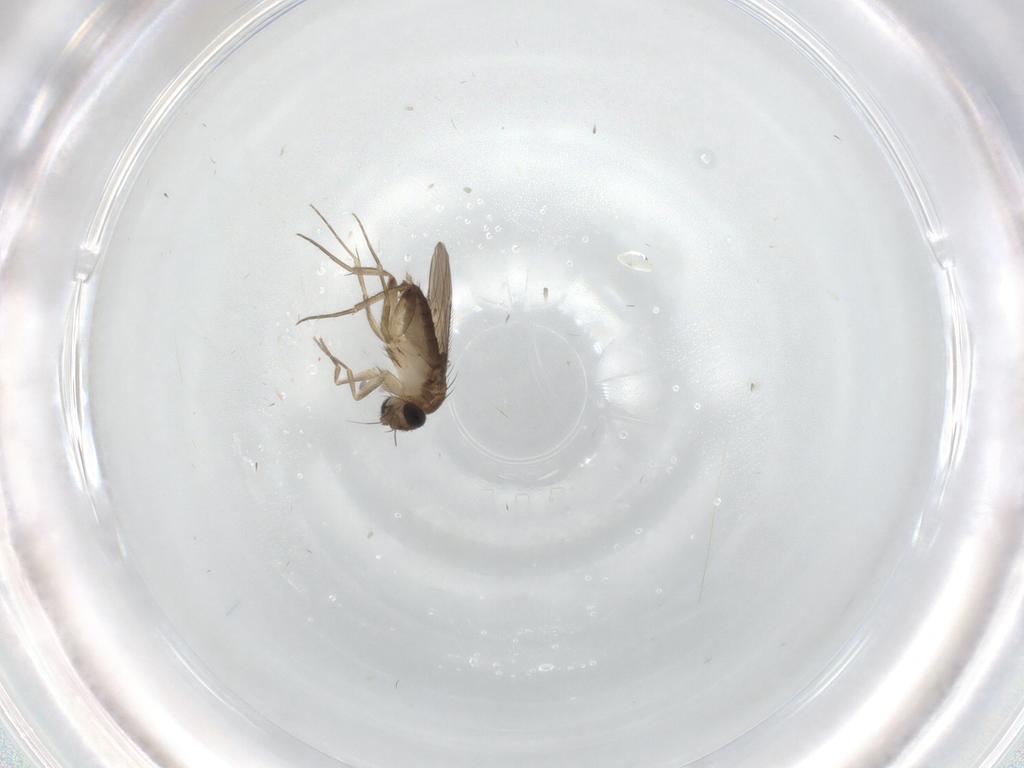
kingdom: Animalia
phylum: Arthropoda
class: Insecta
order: Diptera
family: Phoridae
